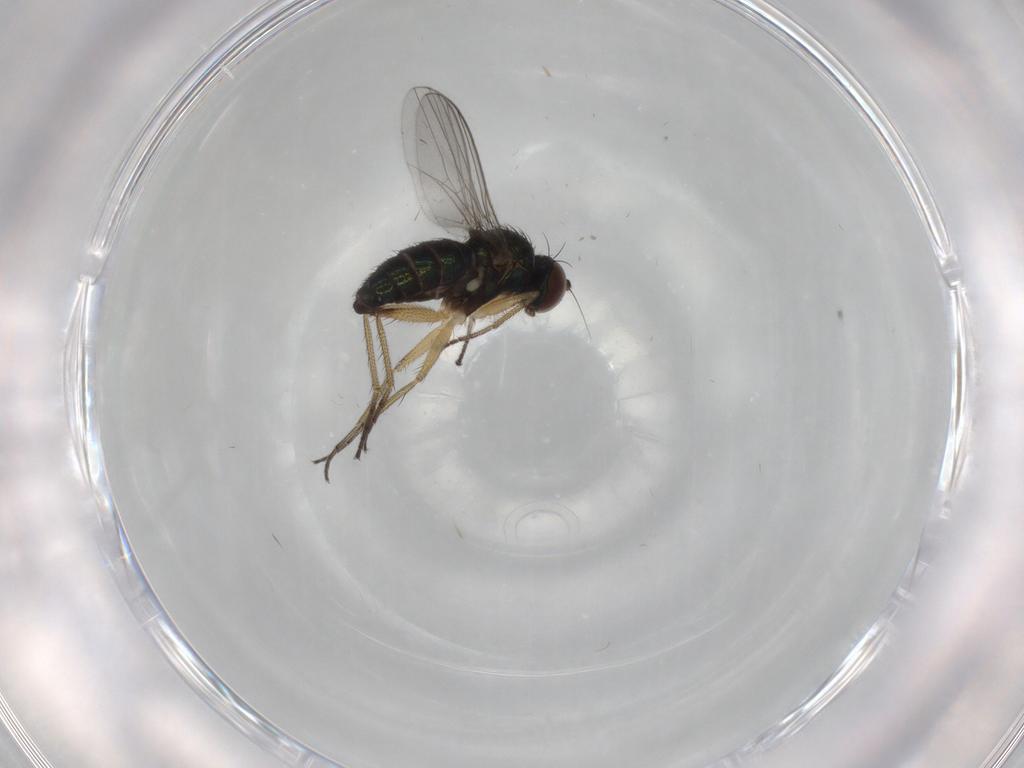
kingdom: Animalia
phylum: Arthropoda
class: Insecta
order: Diptera
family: Dolichopodidae
